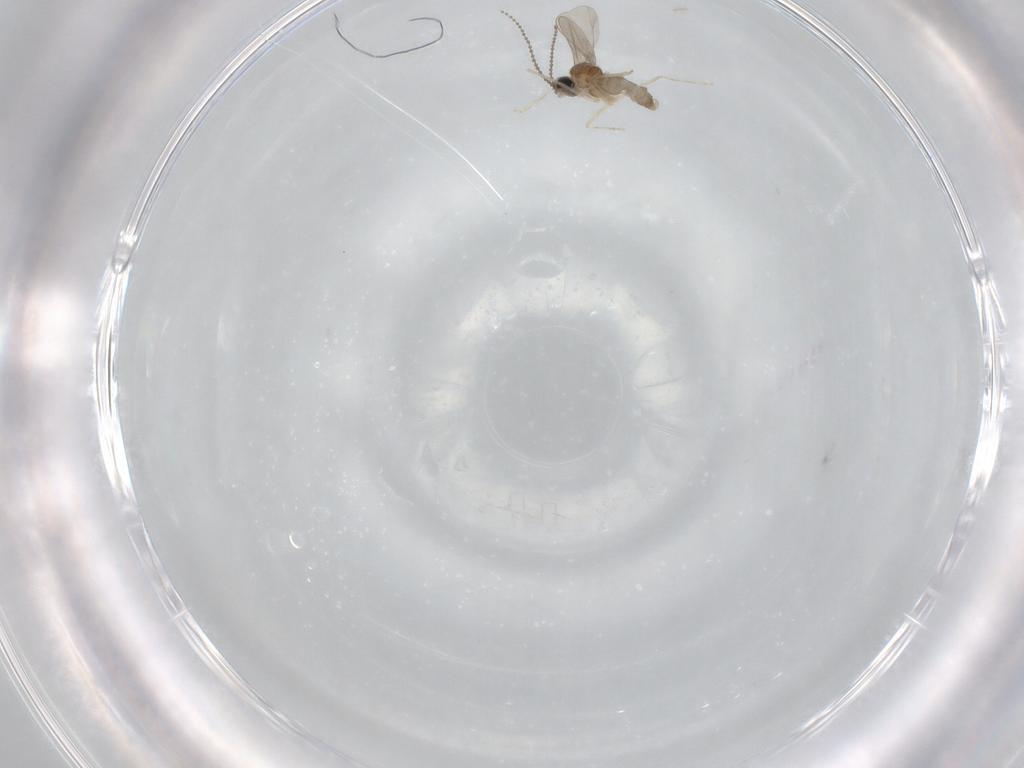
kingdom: Animalia
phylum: Arthropoda
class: Insecta
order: Diptera
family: Cecidomyiidae
